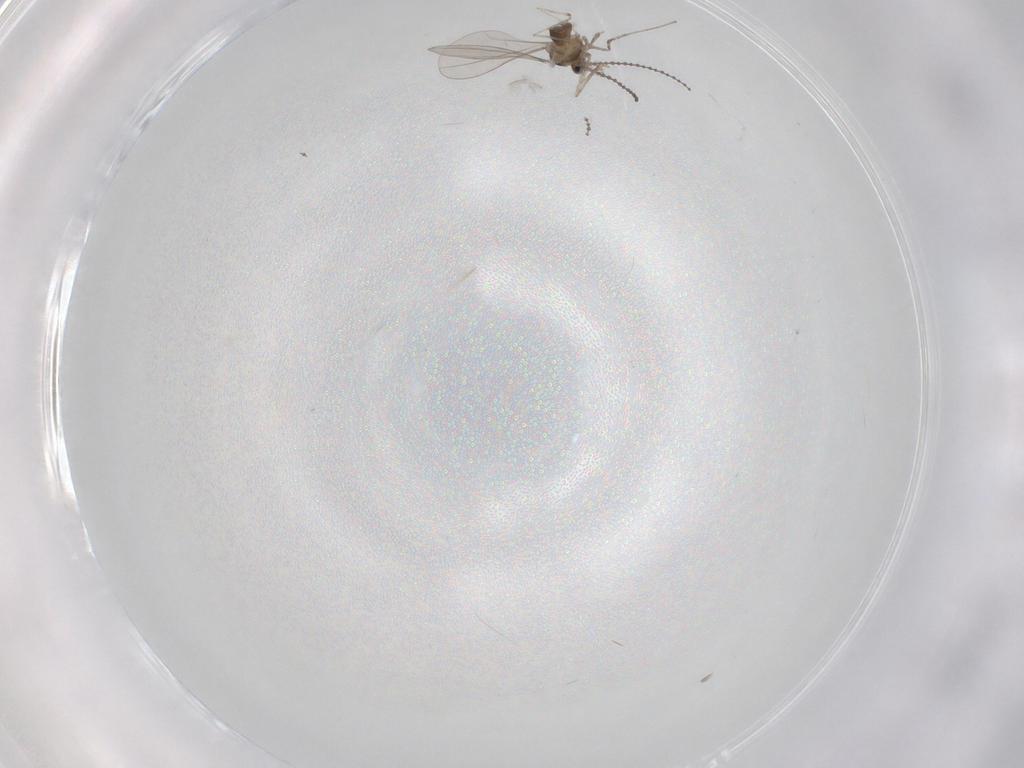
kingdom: Animalia
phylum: Arthropoda
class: Insecta
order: Diptera
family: Cecidomyiidae
